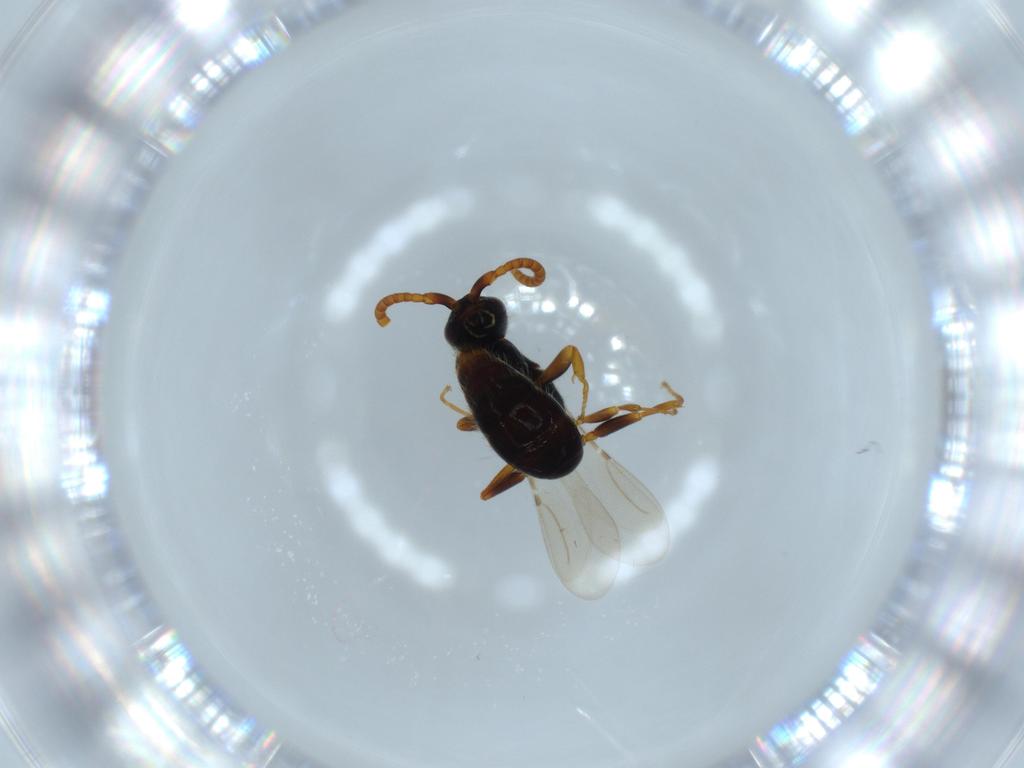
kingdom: Animalia
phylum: Arthropoda
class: Insecta
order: Hymenoptera
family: Bethylidae
